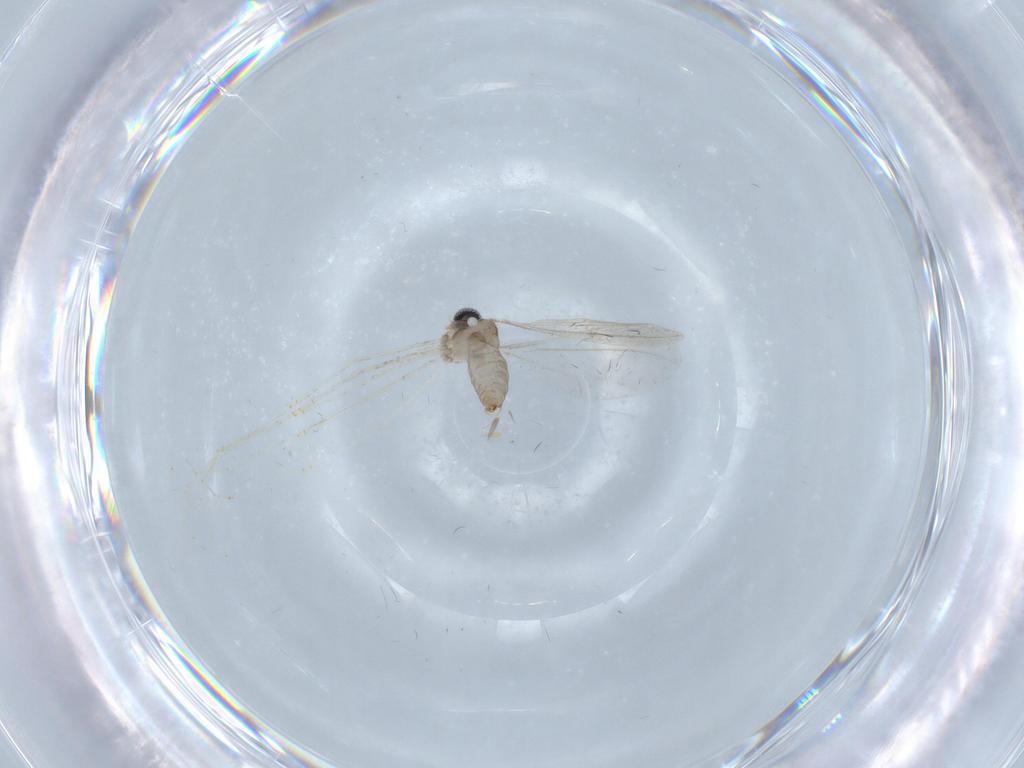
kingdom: Animalia
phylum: Arthropoda
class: Insecta
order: Diptera
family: Cecidomyiidae
